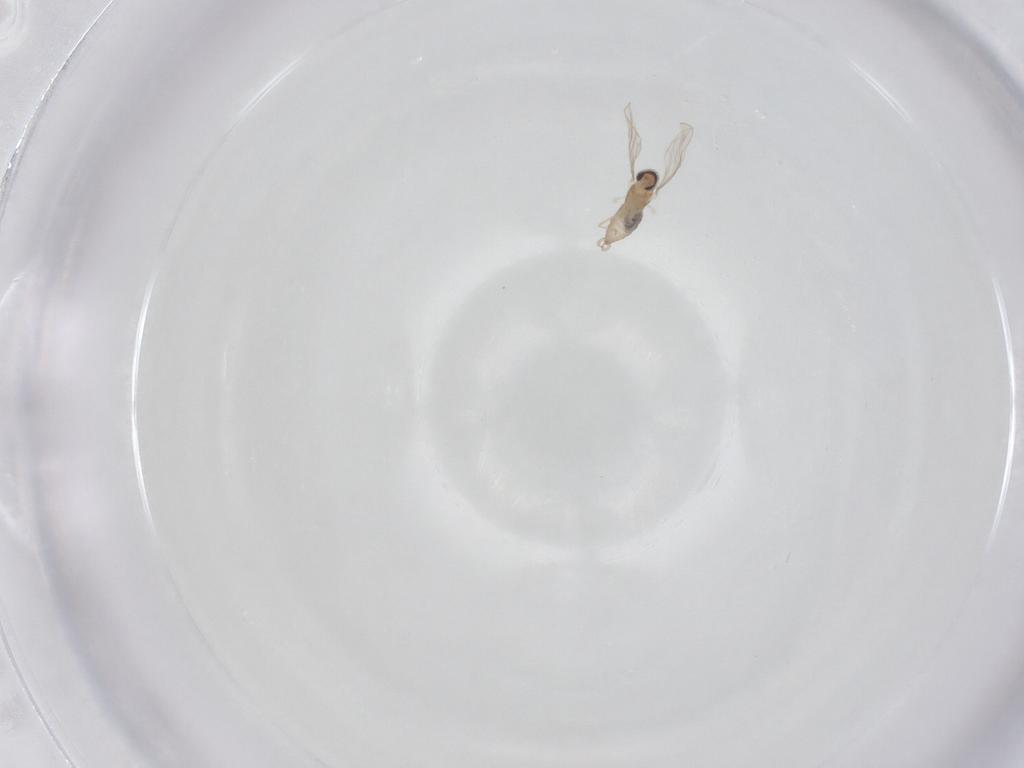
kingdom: Animalia
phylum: Arthropoda
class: Insecta
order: Diptera
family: Cecidomyiidae
